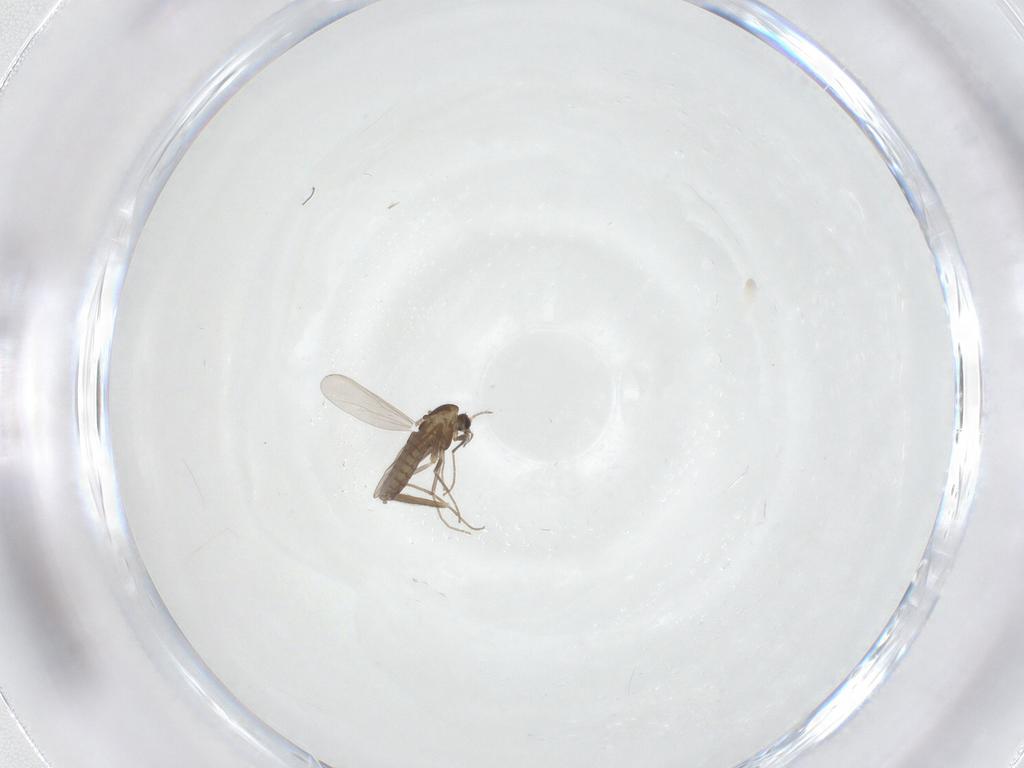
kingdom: Animalia
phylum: Arthropoda
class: Insecta
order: Diptera
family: Chironomidae
